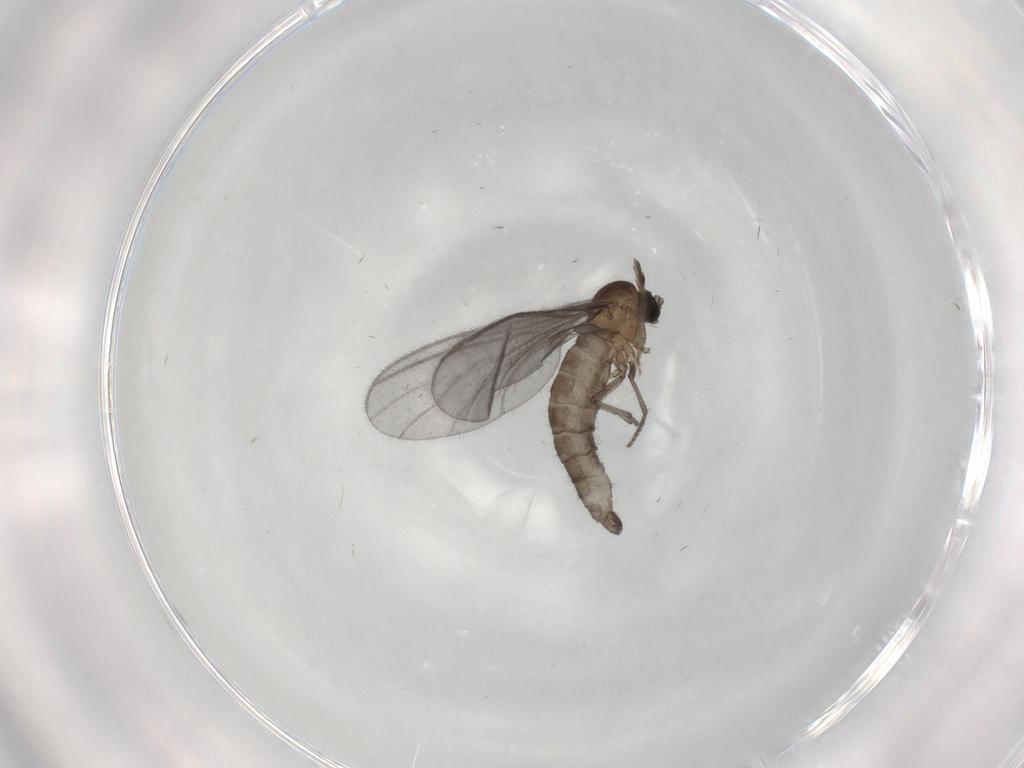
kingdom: Animalia
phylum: Arthropoda
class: Insecta
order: Diptera
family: Sciaridae
